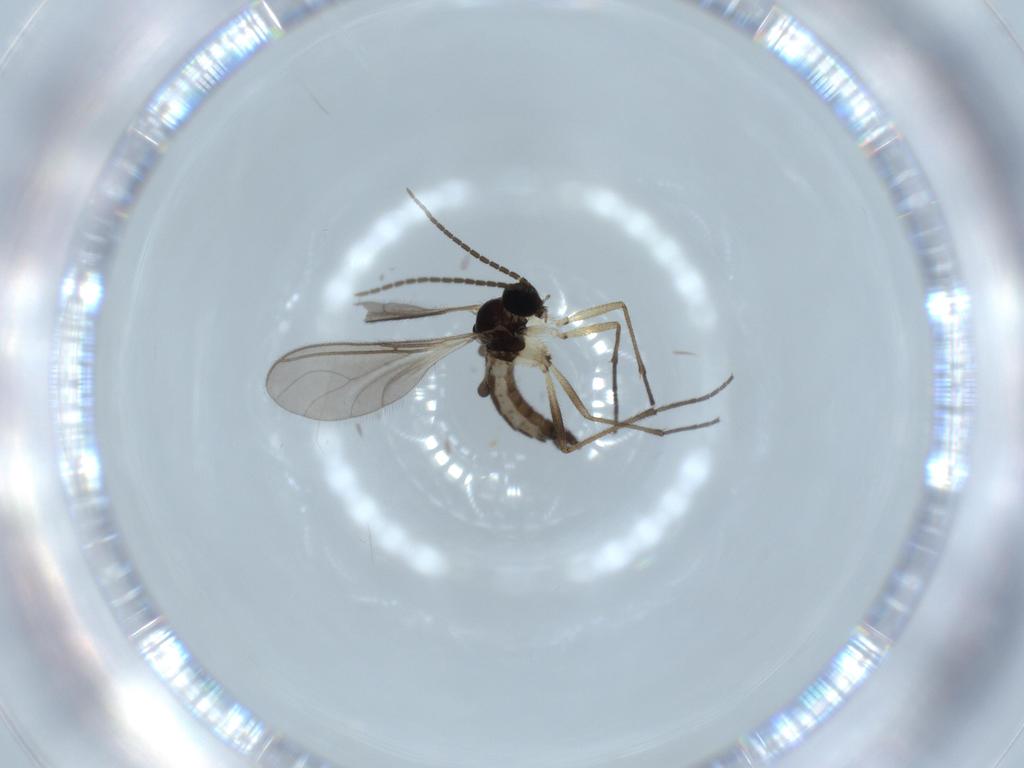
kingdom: Animalia
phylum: Arthropoda
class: Insecta
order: Diptera
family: Sciaridae
